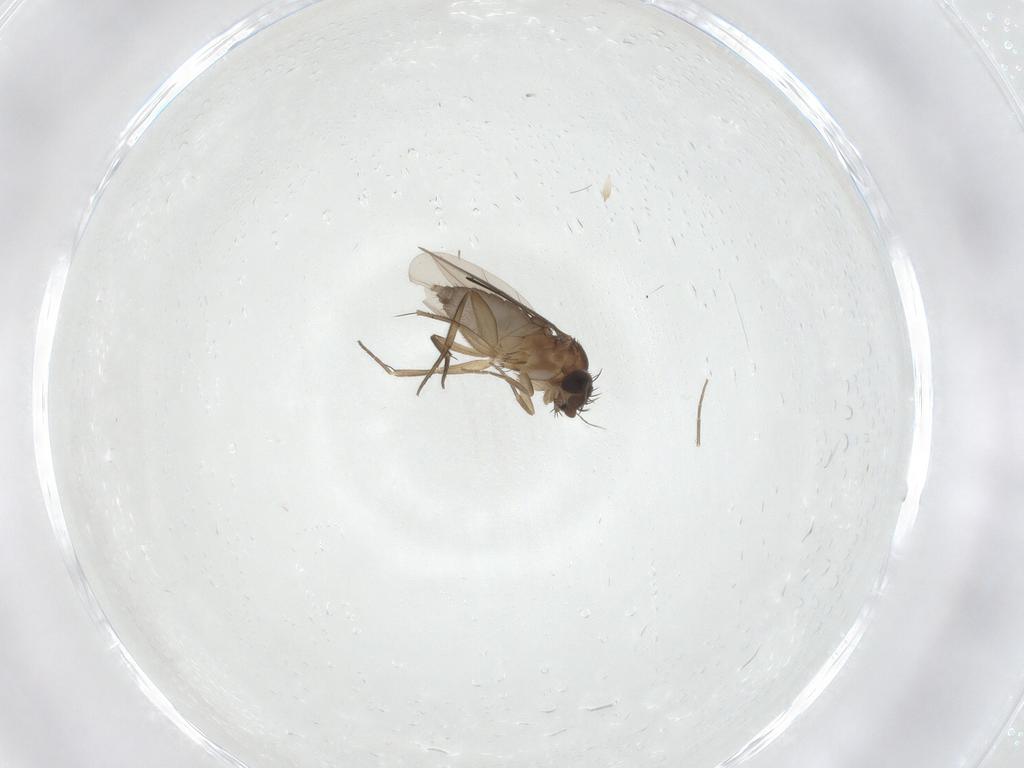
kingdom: Animalia
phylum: Arthropoda
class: Insecta
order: Diptera
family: Phoridae
